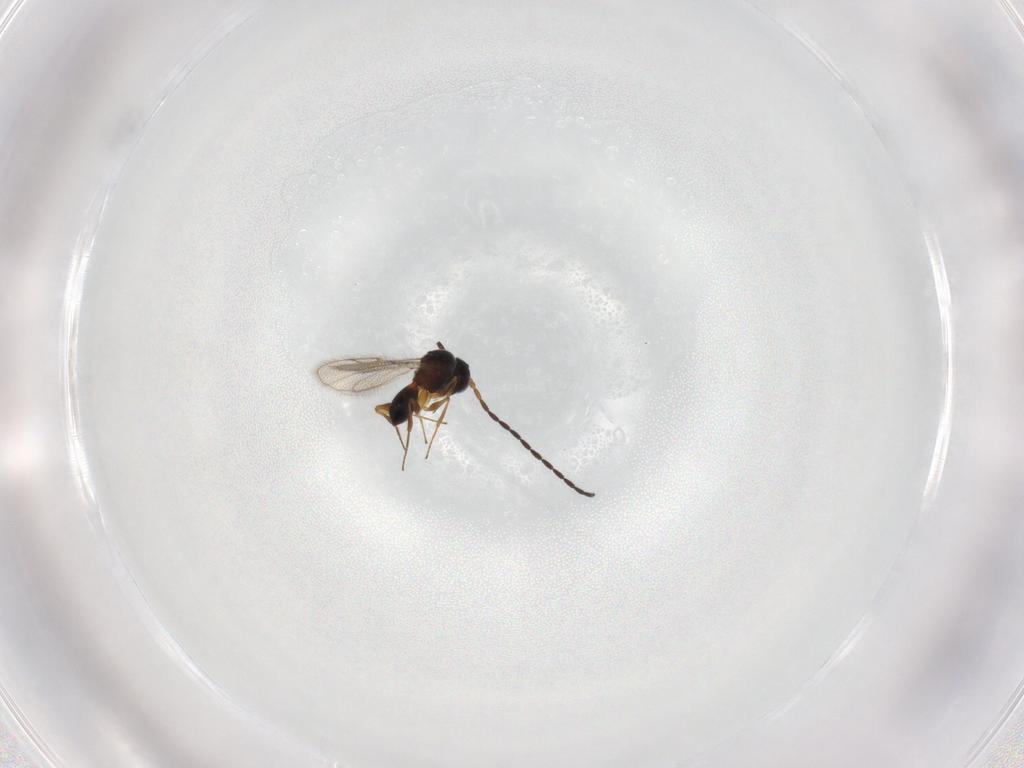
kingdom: Animalia
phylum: Arthropoda
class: Insecta
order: Hymenoptera
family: Figitidae
